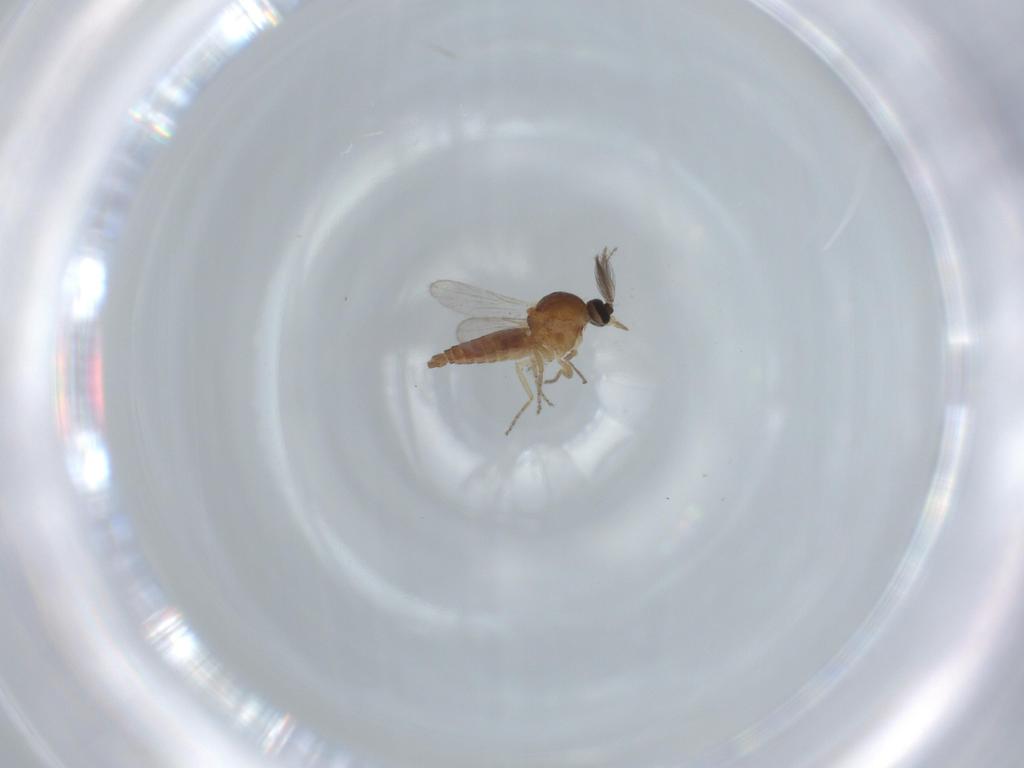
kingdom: Animalia
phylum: Arthropoda
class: Insecta
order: Diptera
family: Ceratopogonidae
